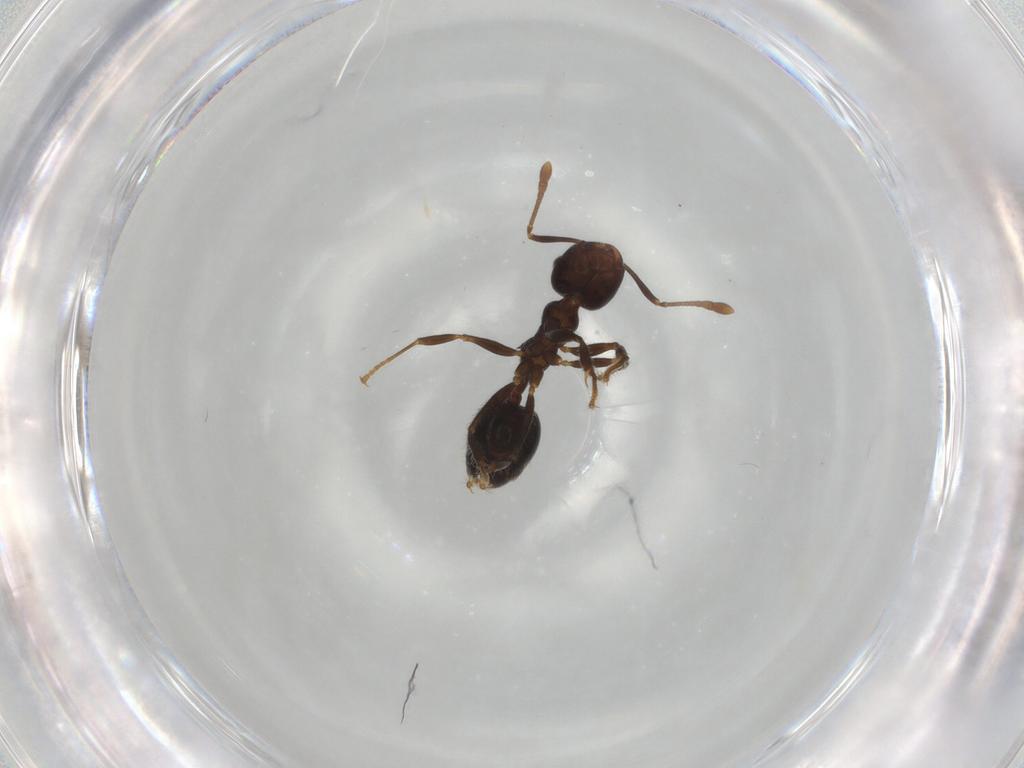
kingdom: Animalia
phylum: Arthropoda
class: Insecta
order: Hymenoptera
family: Formicidae
